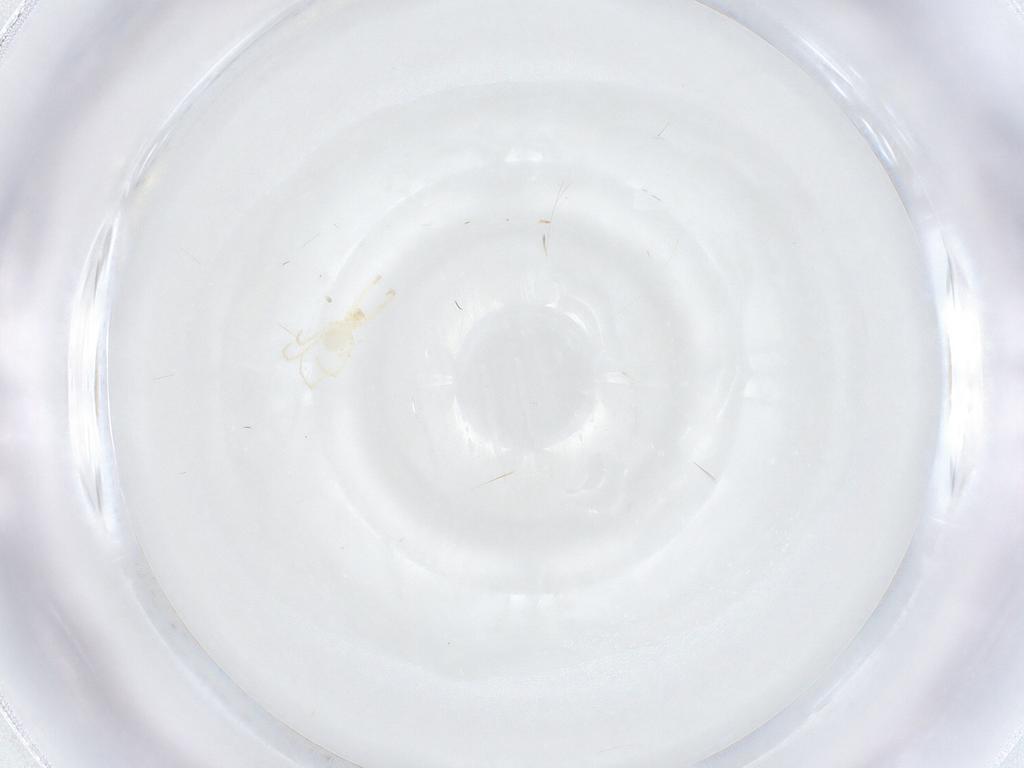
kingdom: Animalia
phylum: Arthropoda
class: Arachnida
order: Trombidiformes
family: Erythraeidae
